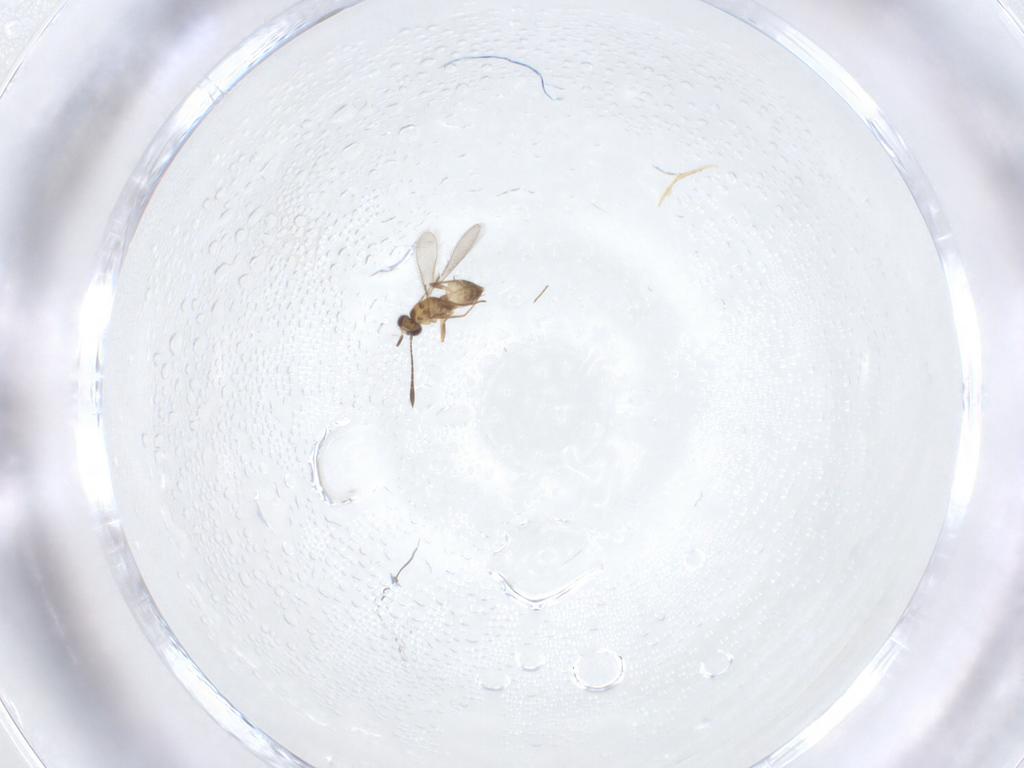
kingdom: Animalia
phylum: Arthropoda
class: Insecta
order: Hymenoptera
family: Mymaridae
